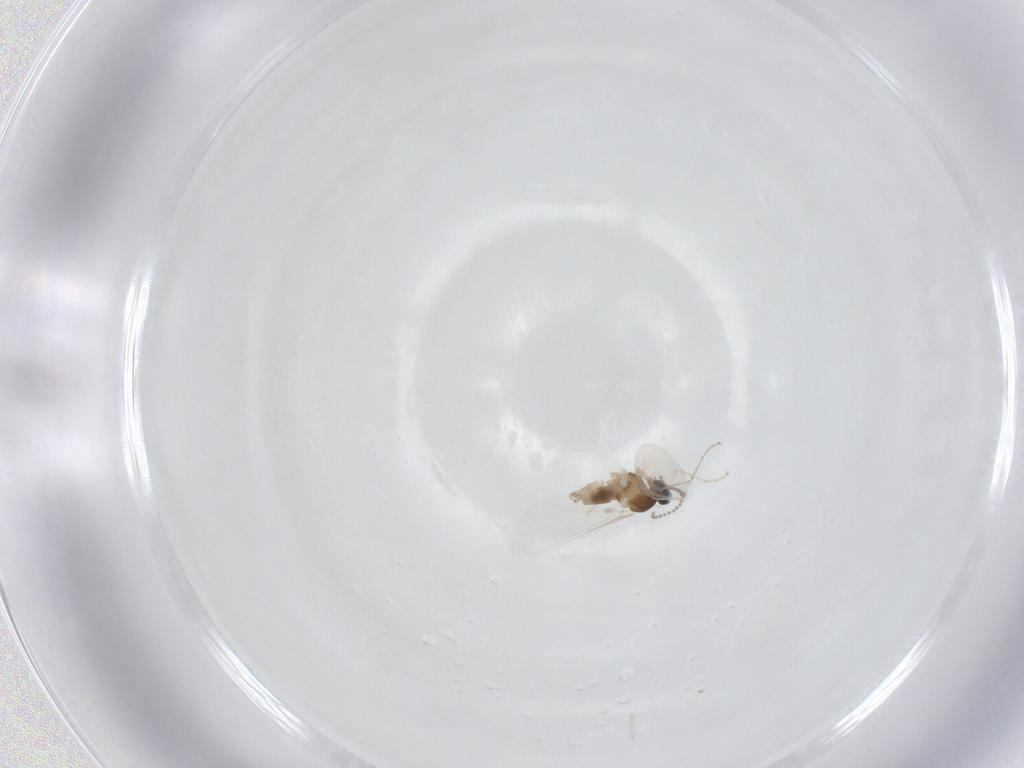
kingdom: Animalia
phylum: Arthropoda
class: Insecta
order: Diptera
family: Cecidomyiidae
